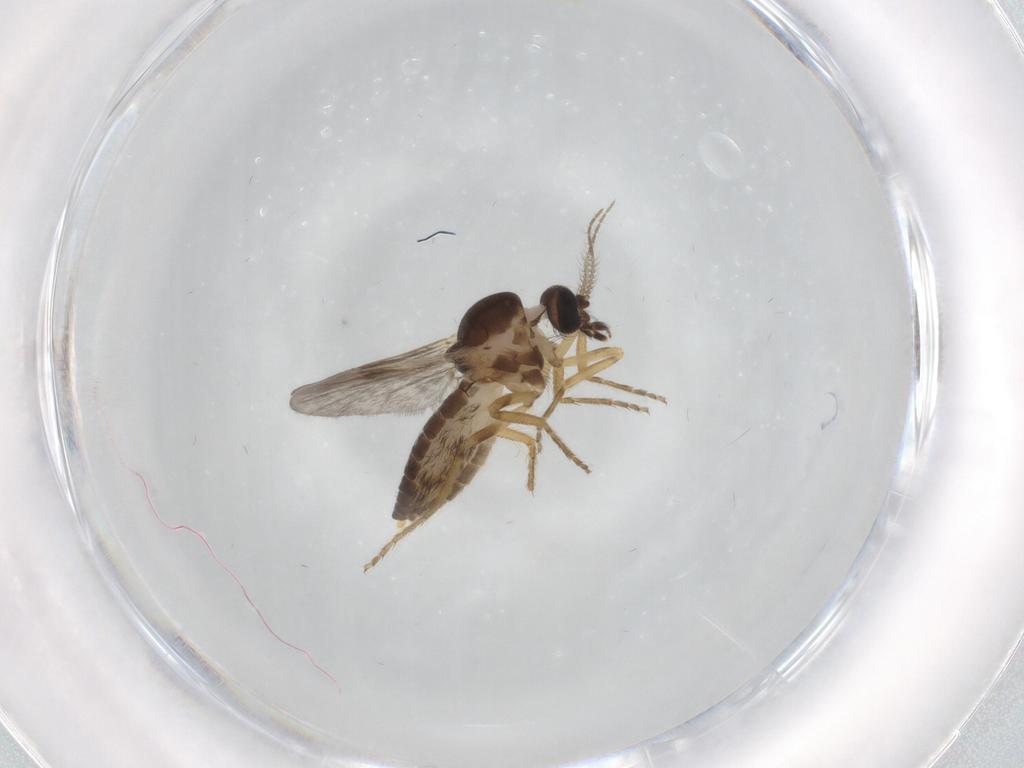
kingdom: Animalia
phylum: Arthropoda
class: Insecta
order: Diptera
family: Ceratopogonidae
